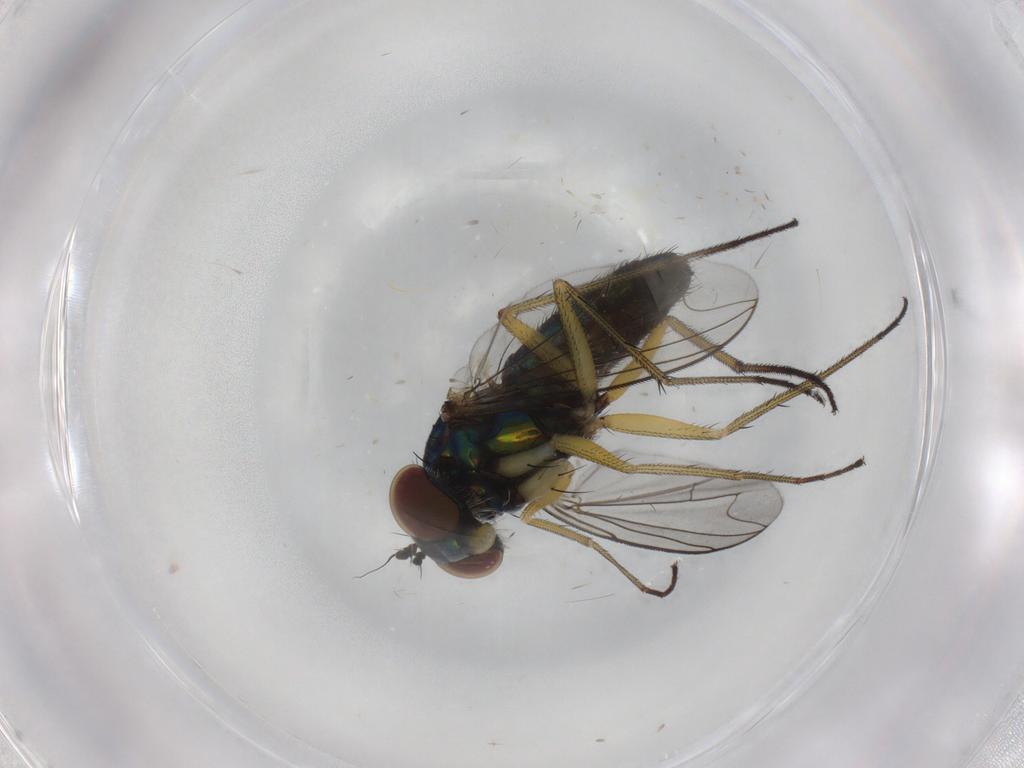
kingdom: Animalia
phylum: Arthropoda
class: Insecta
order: Diptera
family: Dolichopodidae
